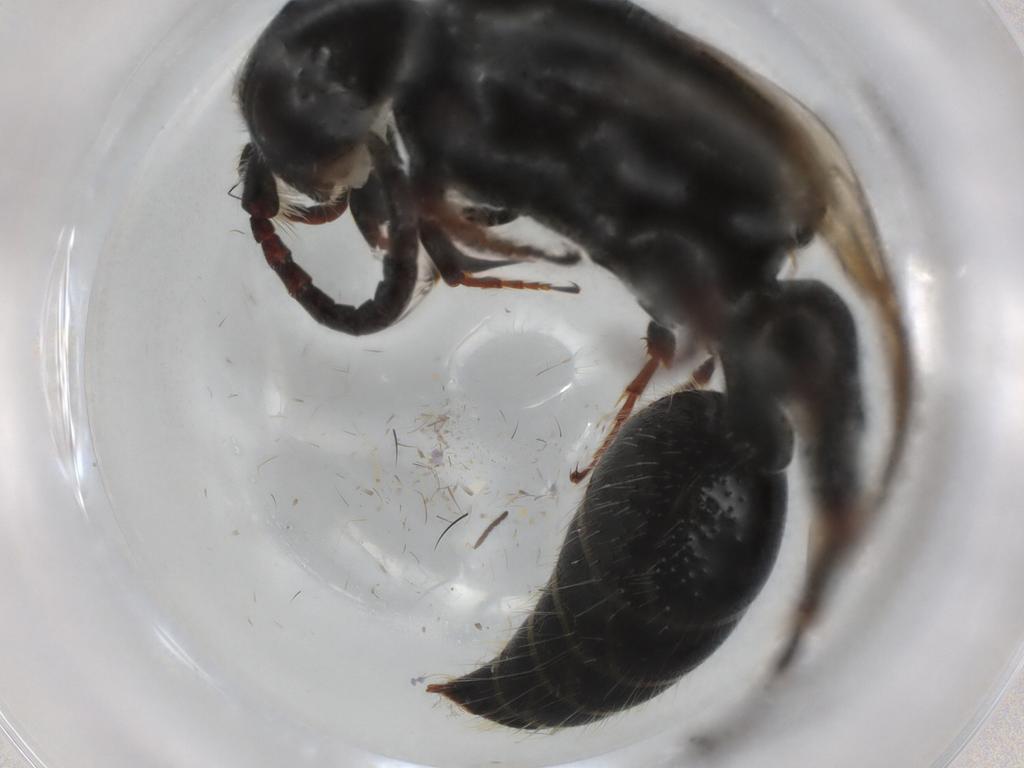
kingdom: Animalia
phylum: Arthropoda
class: Insecta
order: Hymenoptera
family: Tiphiidae
